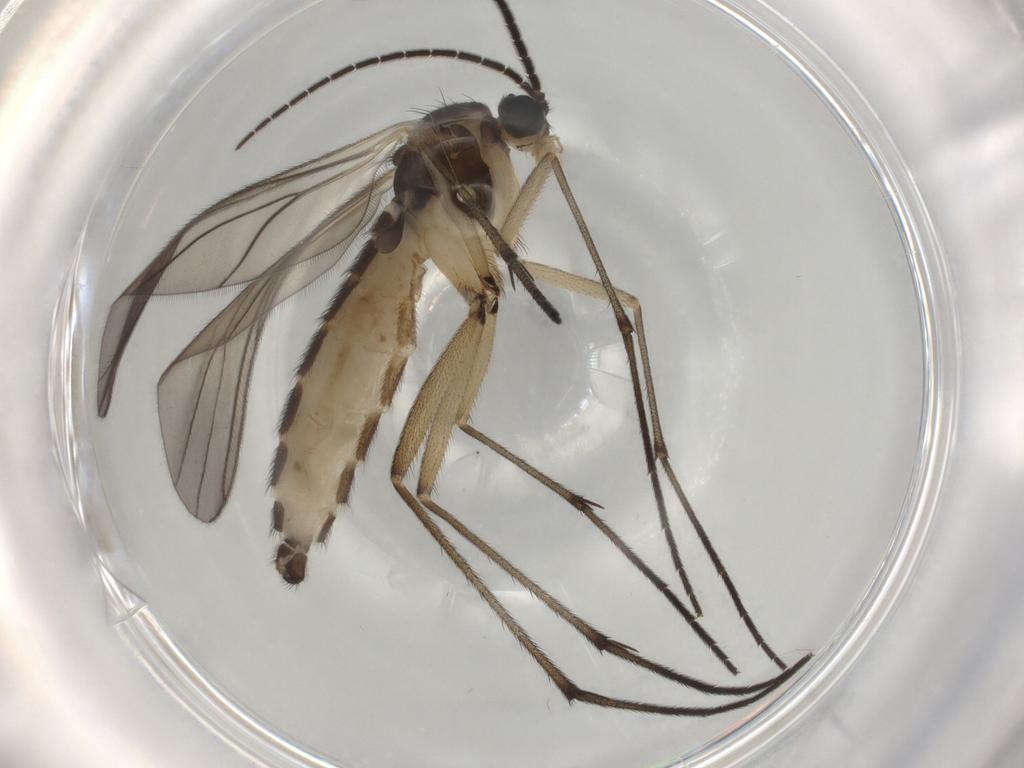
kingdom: Animalia
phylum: Arthropoda
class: Insecta
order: Diptera
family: Sciaridae
